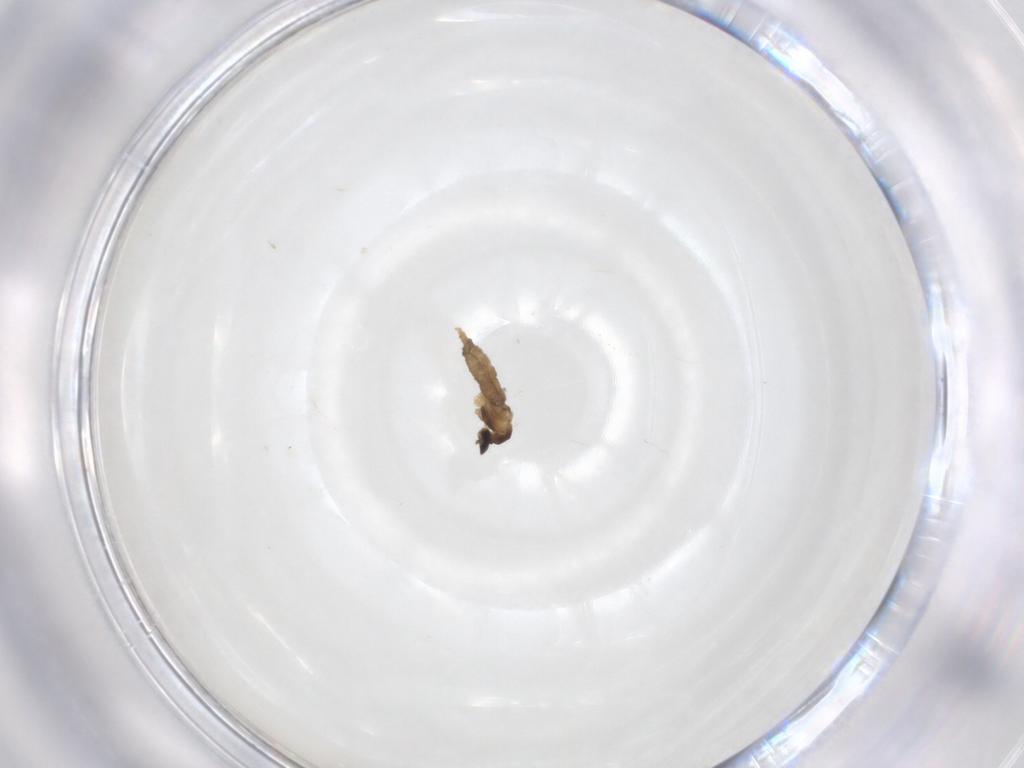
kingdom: Animalia
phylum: Arthropoda
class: Insecta
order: Diptera
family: Cecidomyiidae
